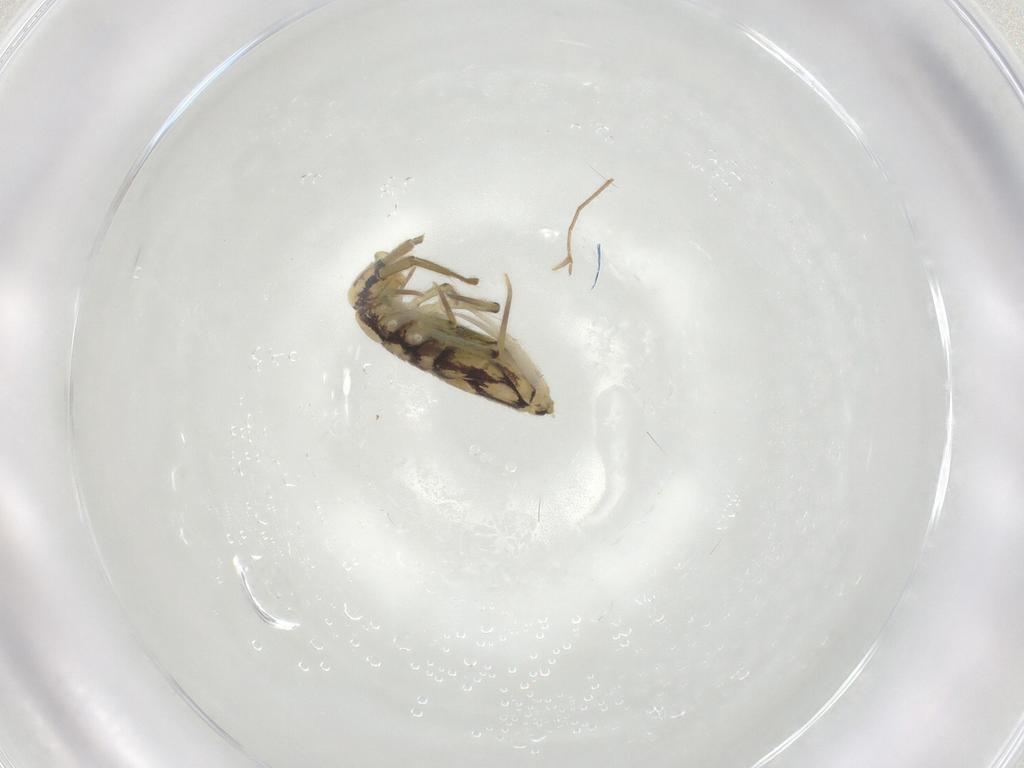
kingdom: Animalia
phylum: Arthropoda
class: Collembola
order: Entomobryomorpha
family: Entomobryidae
